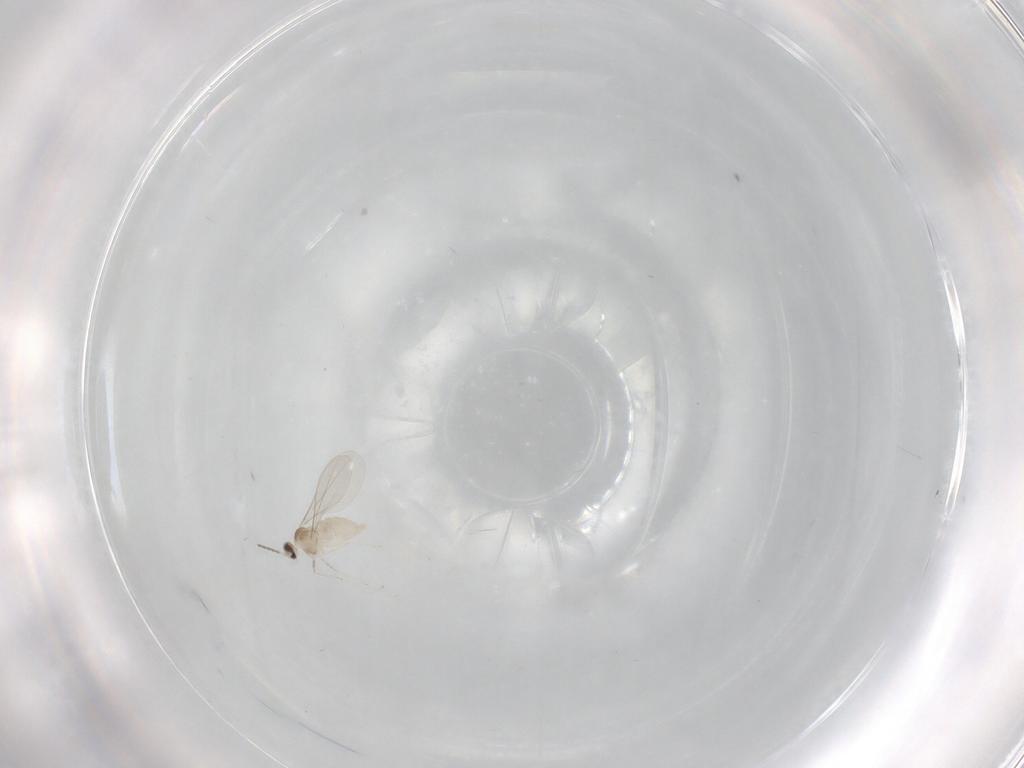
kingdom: Animalia
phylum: Arthropoda
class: Insecta
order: Diptera
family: Cecidomyiidae
